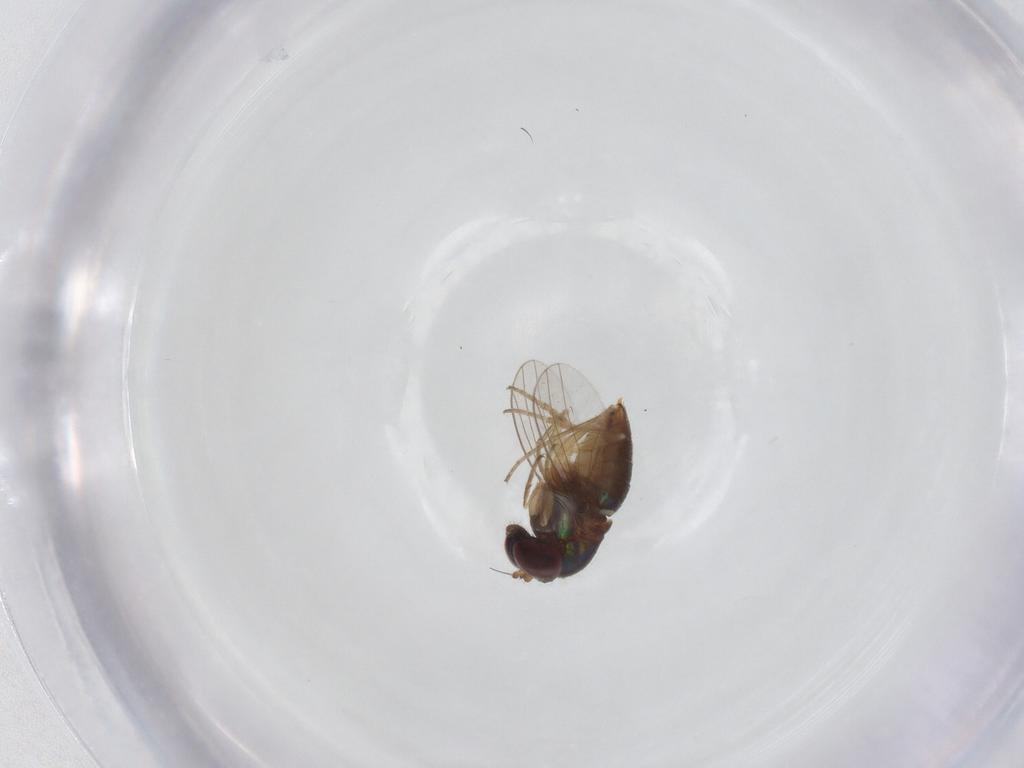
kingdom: Animalia
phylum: Arthropoda
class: Insecta
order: Diptera
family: Dolichopodidae
